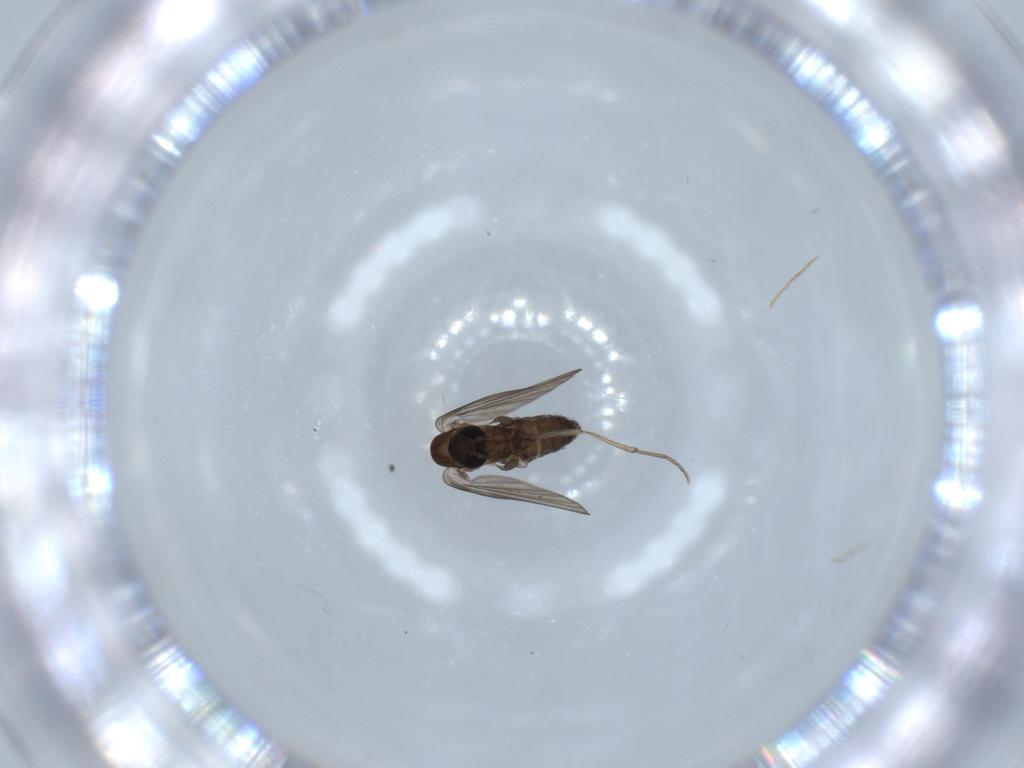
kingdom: Animalia
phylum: Arthropoda
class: Insecta
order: Diptera
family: Psychodidae
